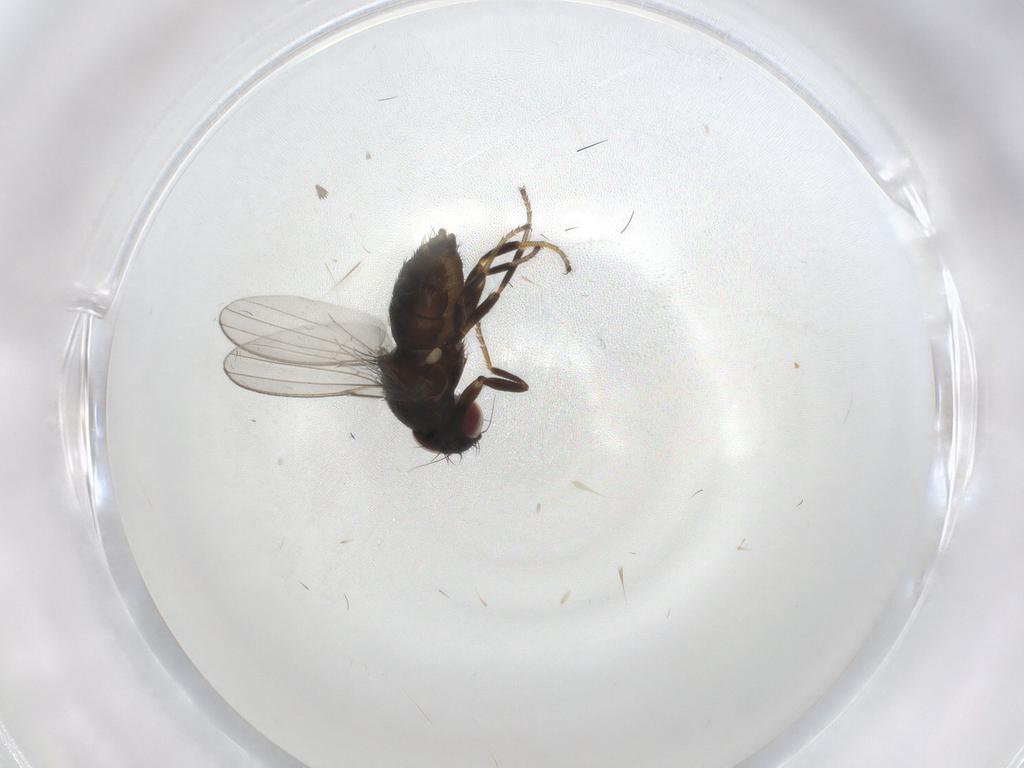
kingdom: Animalia
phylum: Arthropoda
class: Insecta
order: Diptera
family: Milichiidae
